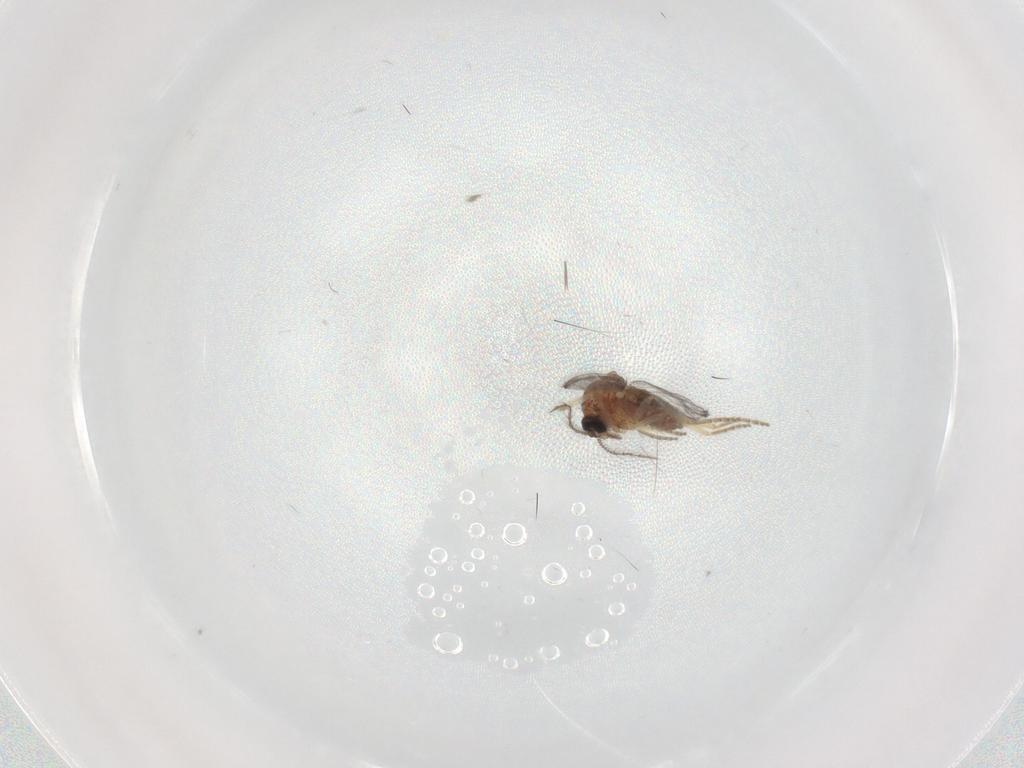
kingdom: Animalia
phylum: Arthropoda
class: Insecta
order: Diptera
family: Ceratopogonidae
